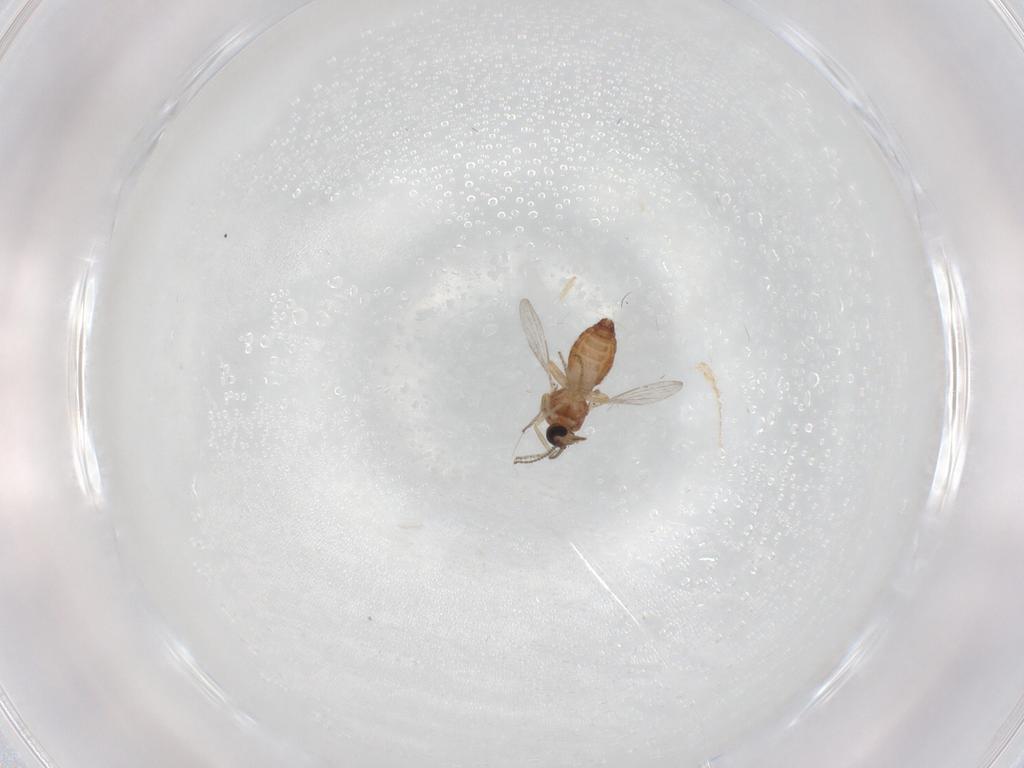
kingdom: Animalia
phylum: Arthropoda
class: Insecta
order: Diptera
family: Ceratopogonidae
